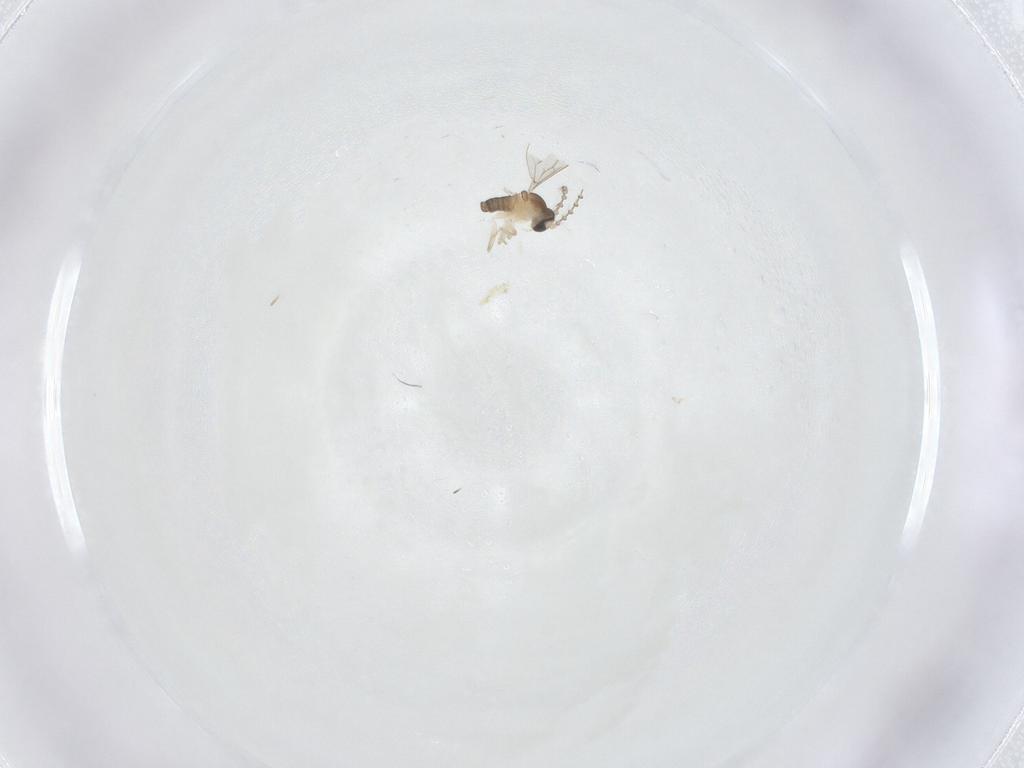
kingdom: Animalia
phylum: Arthropoda
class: Insecta
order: Diptera
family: Cecidomyiidae
